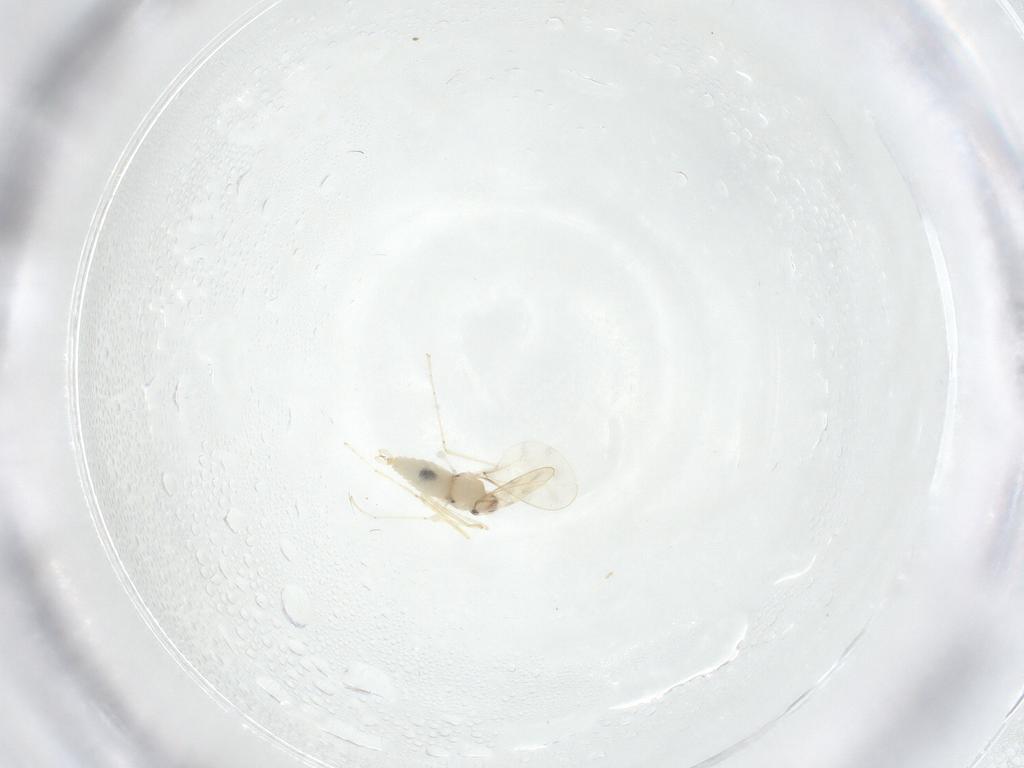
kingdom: Animalia
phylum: Arthropoda
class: Insecta
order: Diptera
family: Cecidomyiidae
